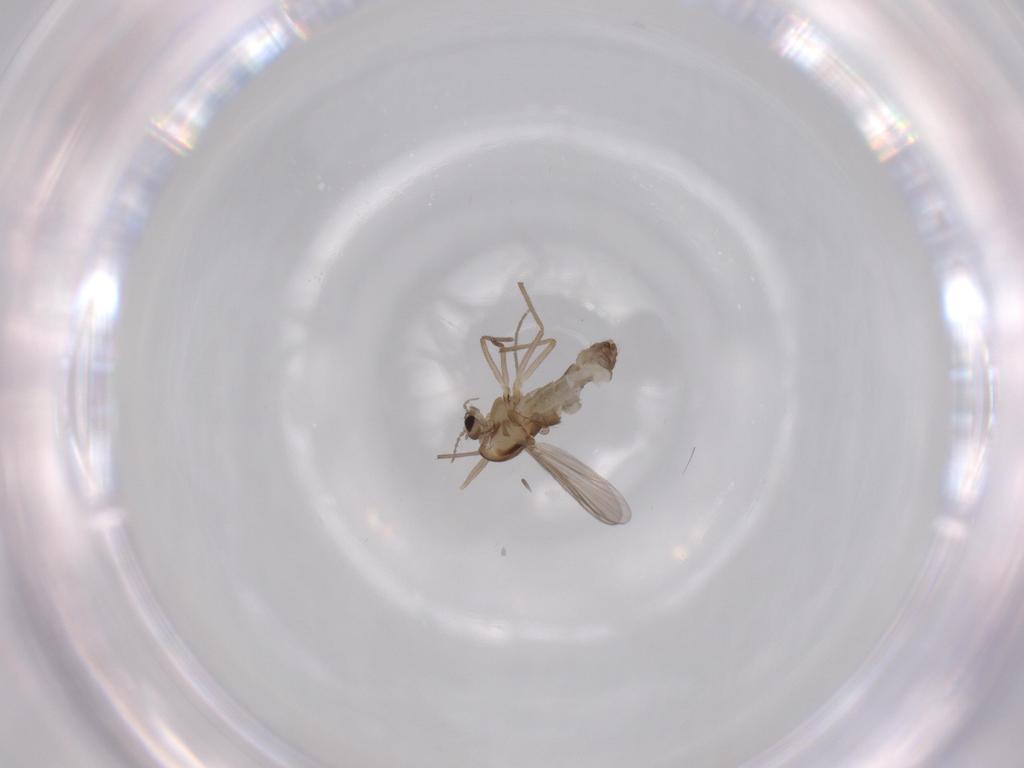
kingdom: Animalia
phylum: Arthropoda
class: Insecta
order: Diptera
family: Chironomidae
